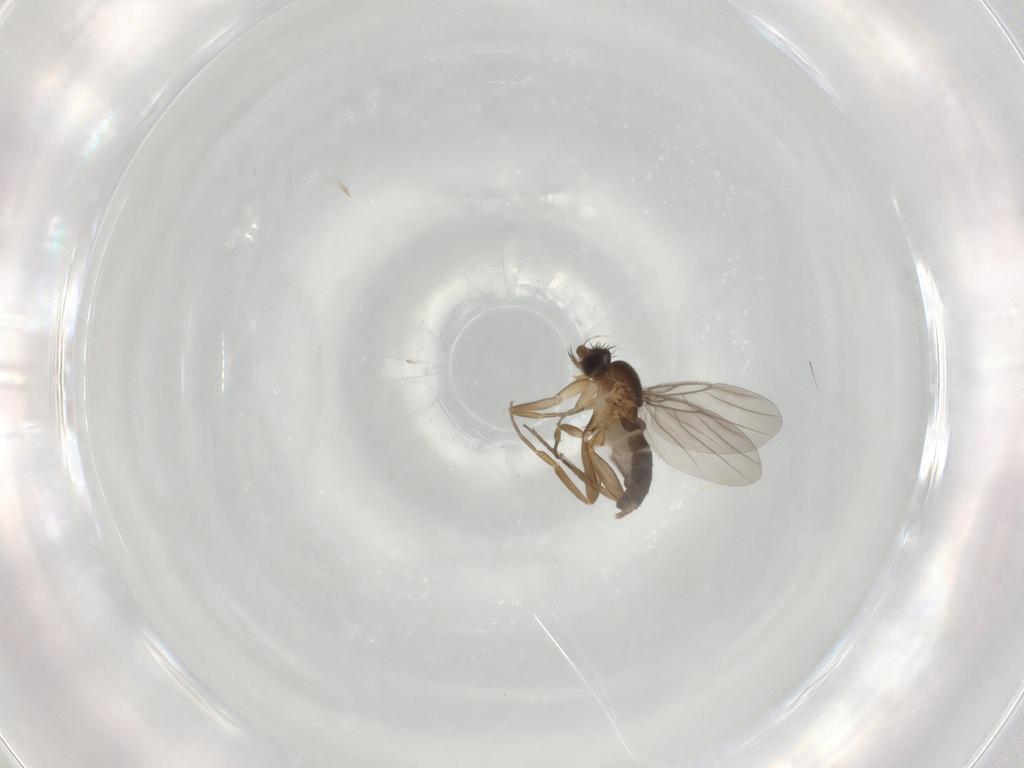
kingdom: Animalia
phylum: Arthropoda
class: Insecta
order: Diptera
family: Cecidomyiidae
